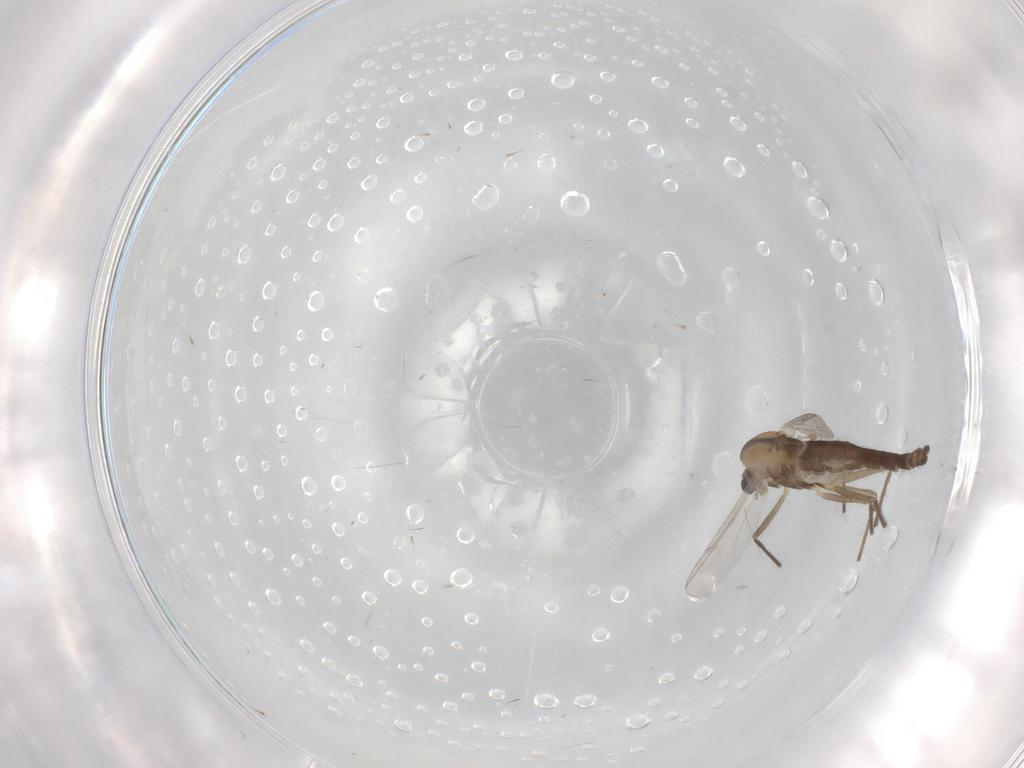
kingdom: Animalia
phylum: Arthropoda
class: Insecta
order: Diptera
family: Chironomidae
